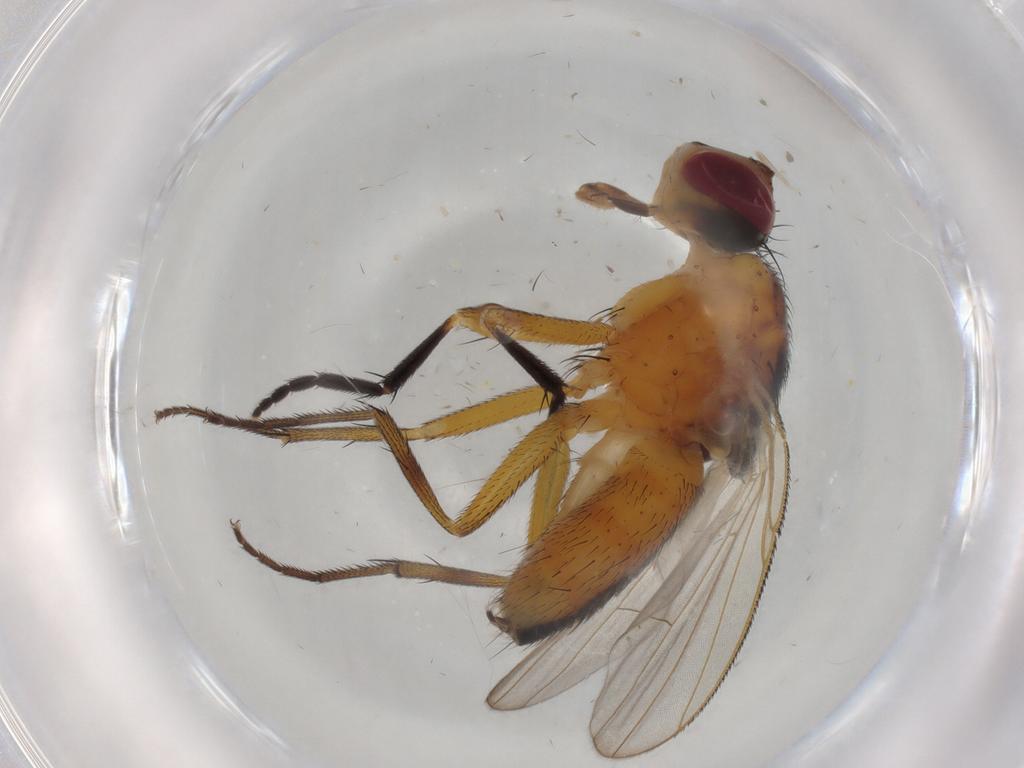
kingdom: Animalia
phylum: Arthropoda
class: Insecta
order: Diptera
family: Muscidae
